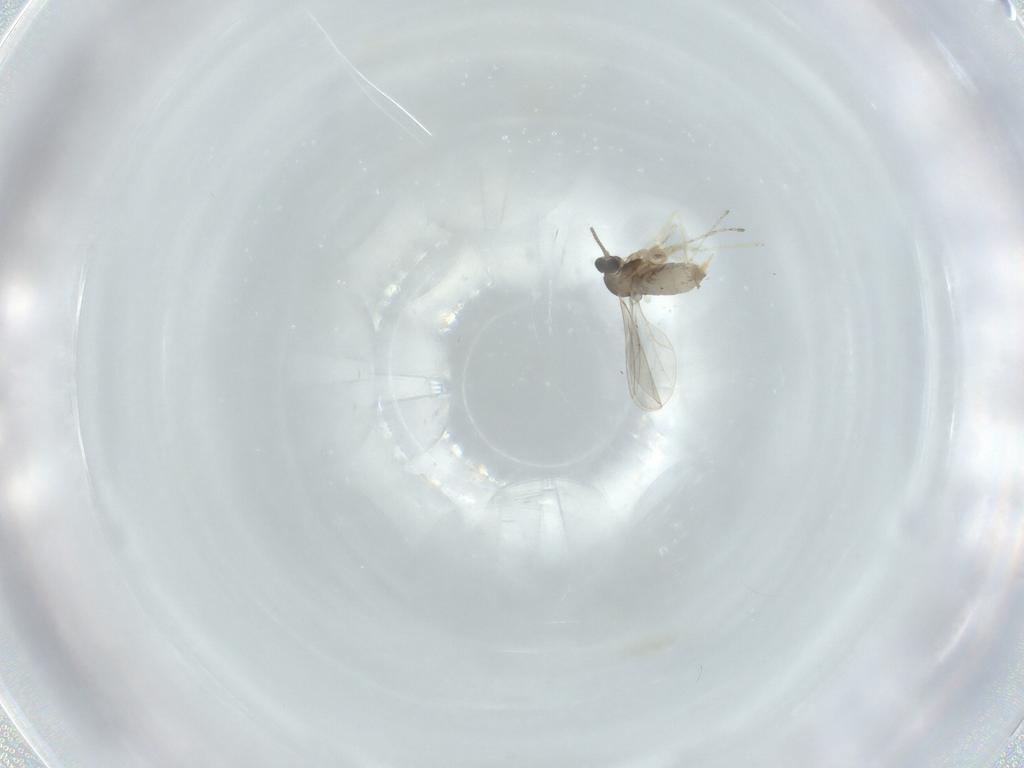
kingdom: Animalia
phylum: Arthropoda
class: Insecta
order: Diptera
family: Cecidomyiidae
